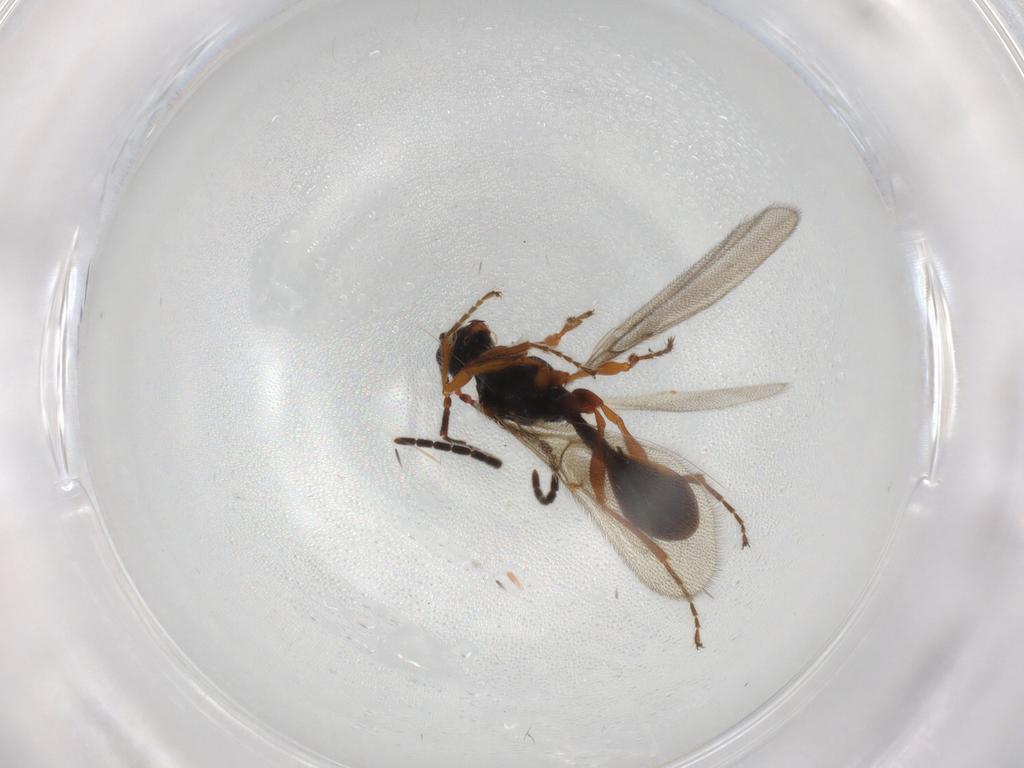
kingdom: Animalia
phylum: Arthropoda
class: Insecta
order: Hymenoptera
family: Diapriidae
